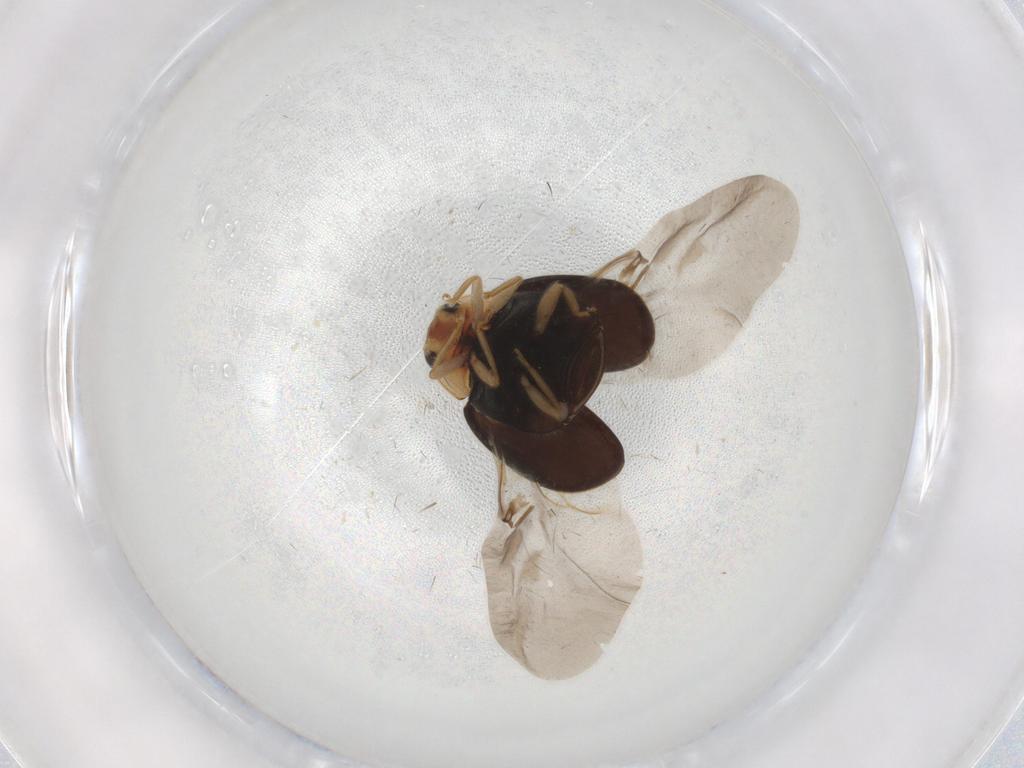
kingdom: Animalia
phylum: Arthropoda
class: Insecta
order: Coleoptera
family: Coccinellidae
